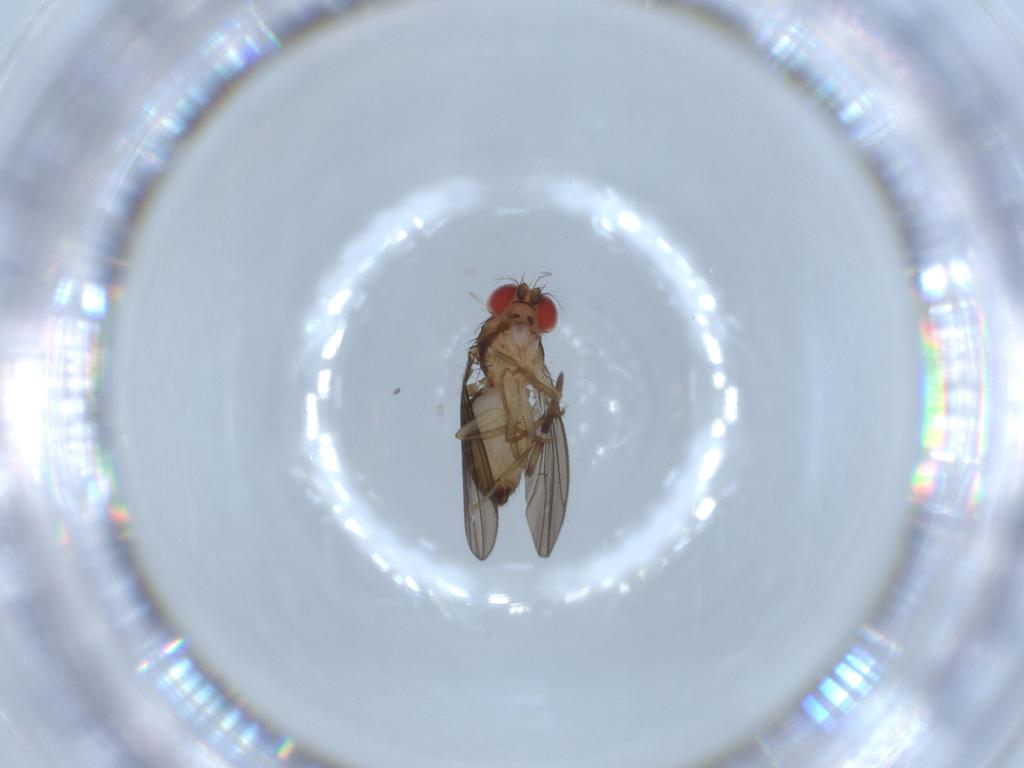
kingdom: Animalia
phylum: Arthropoda
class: Insecta
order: Diptera
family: Drosophilidae
